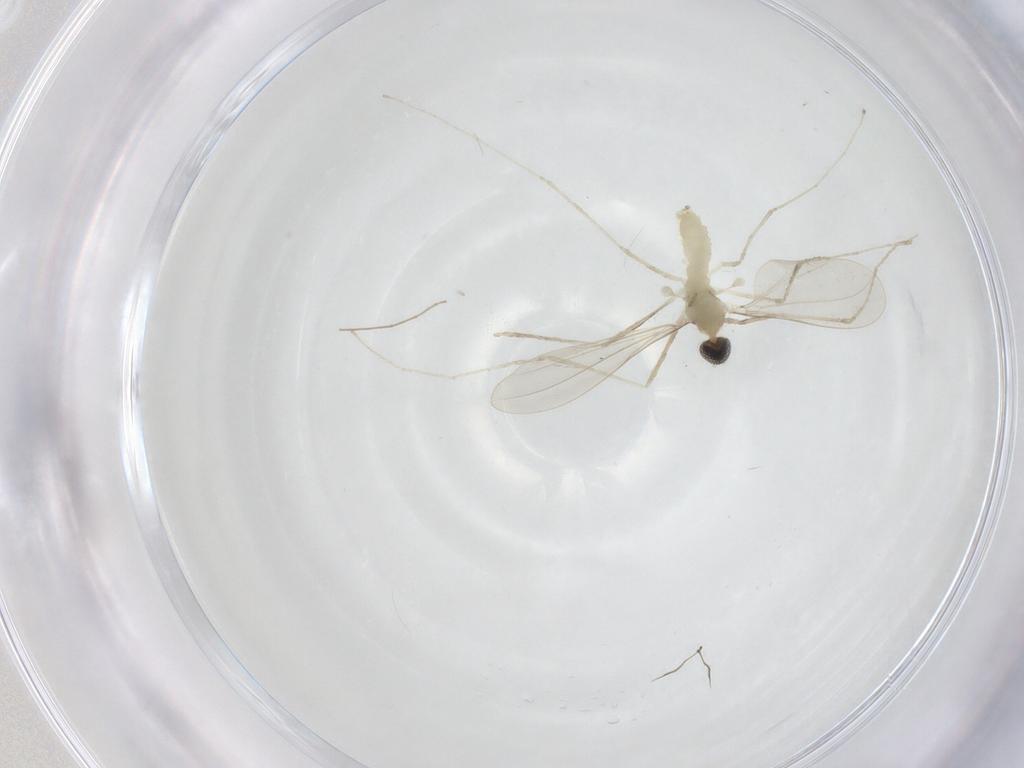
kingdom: Animalia
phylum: Arthropoda
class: Insecta
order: Diptera
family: Cecidomyiidae
